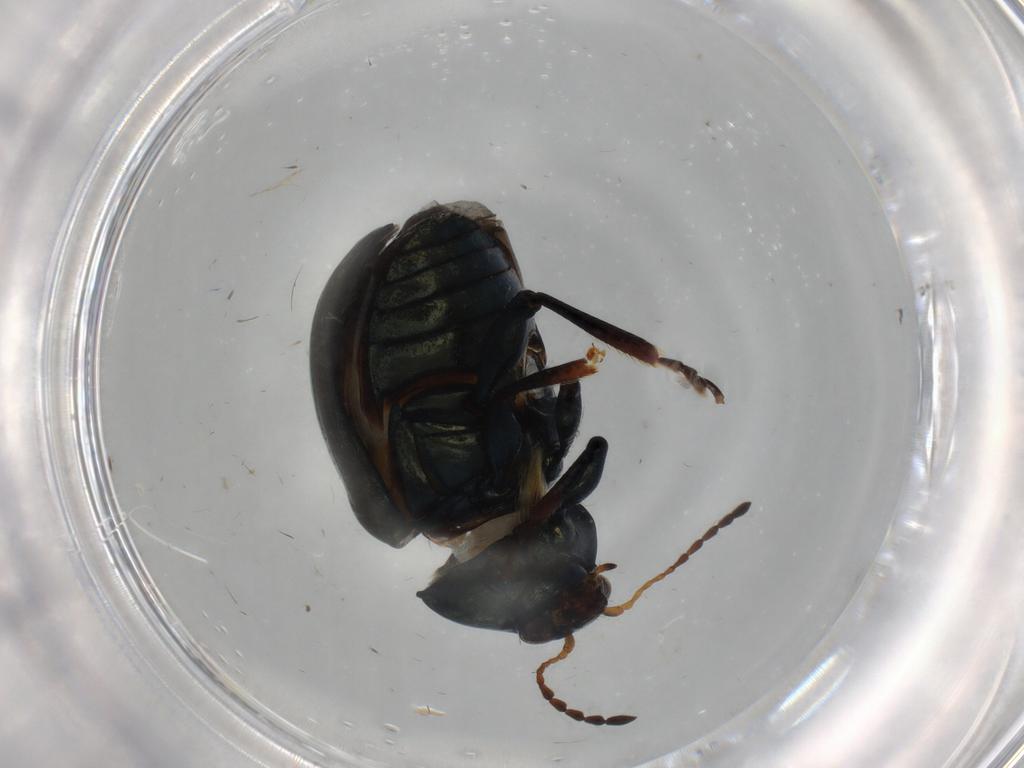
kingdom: Animalia
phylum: Arthropoda
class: Insecta
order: Coleoptera
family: Chrysomelidae
